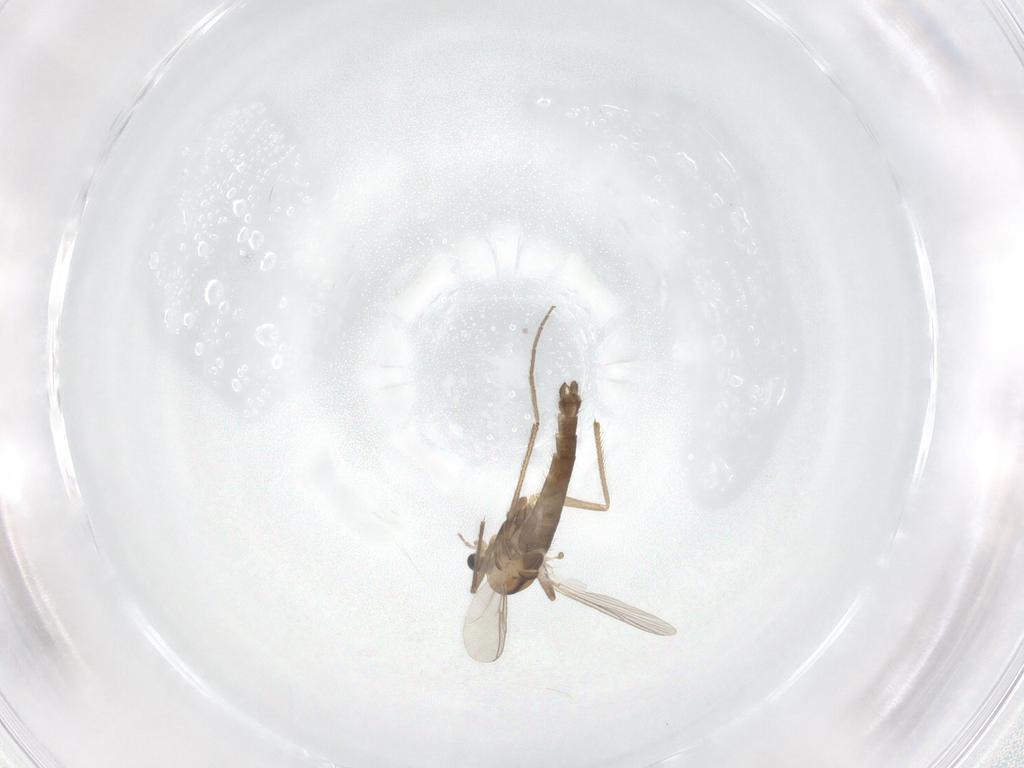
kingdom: Animalia
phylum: Arthropoda
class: Insecta
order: Diptera
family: Chironomidae
